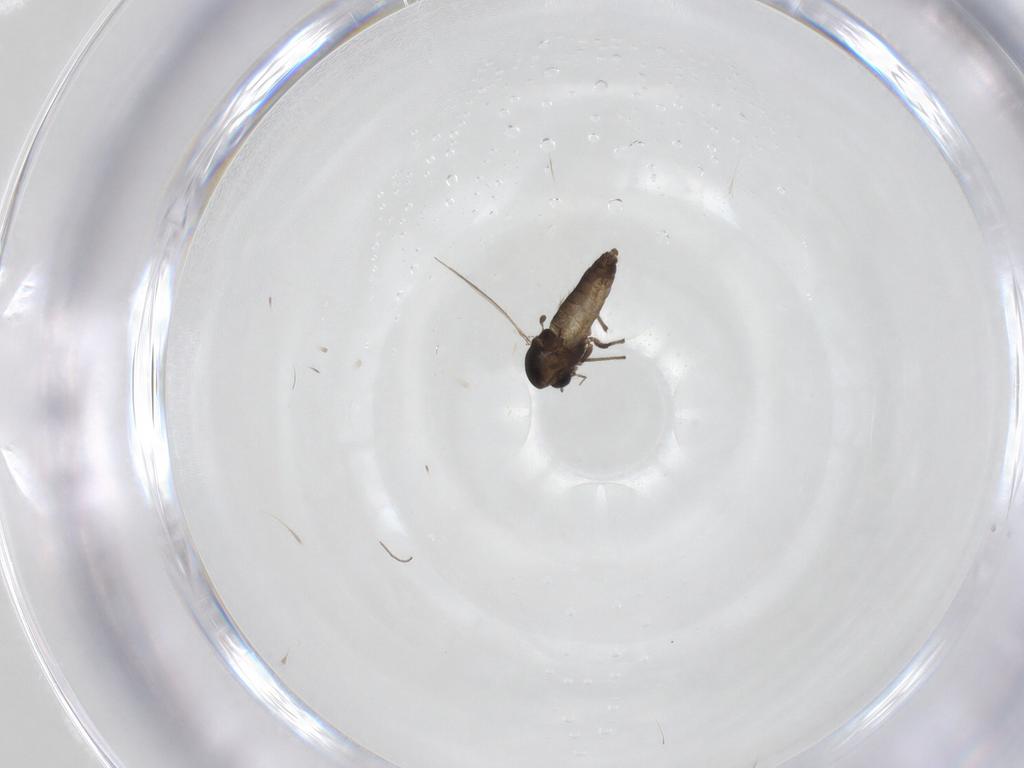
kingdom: Animalia
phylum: Arthropoda
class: Insecta
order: Diptera
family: Chironomidae
